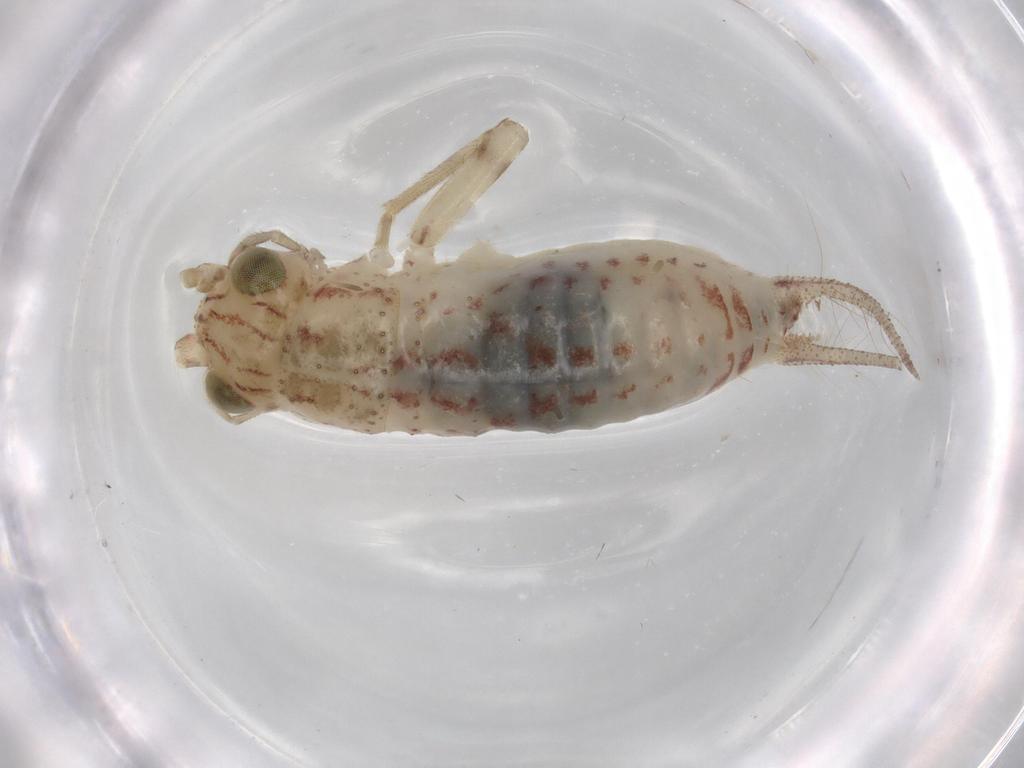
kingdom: Animalia
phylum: Arthropoda
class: Insecta
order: Orthoptera
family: Trigonidiidae
